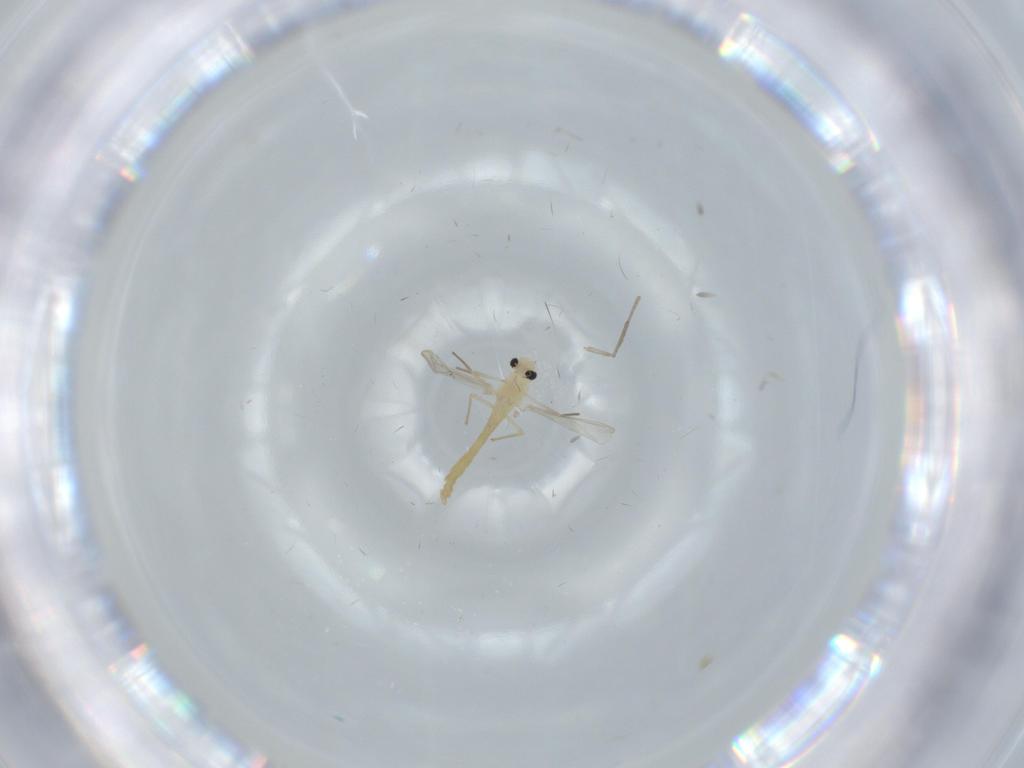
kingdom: Animalia
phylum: Arthropoda
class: Insecta
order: Diptera
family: Chironomidae
